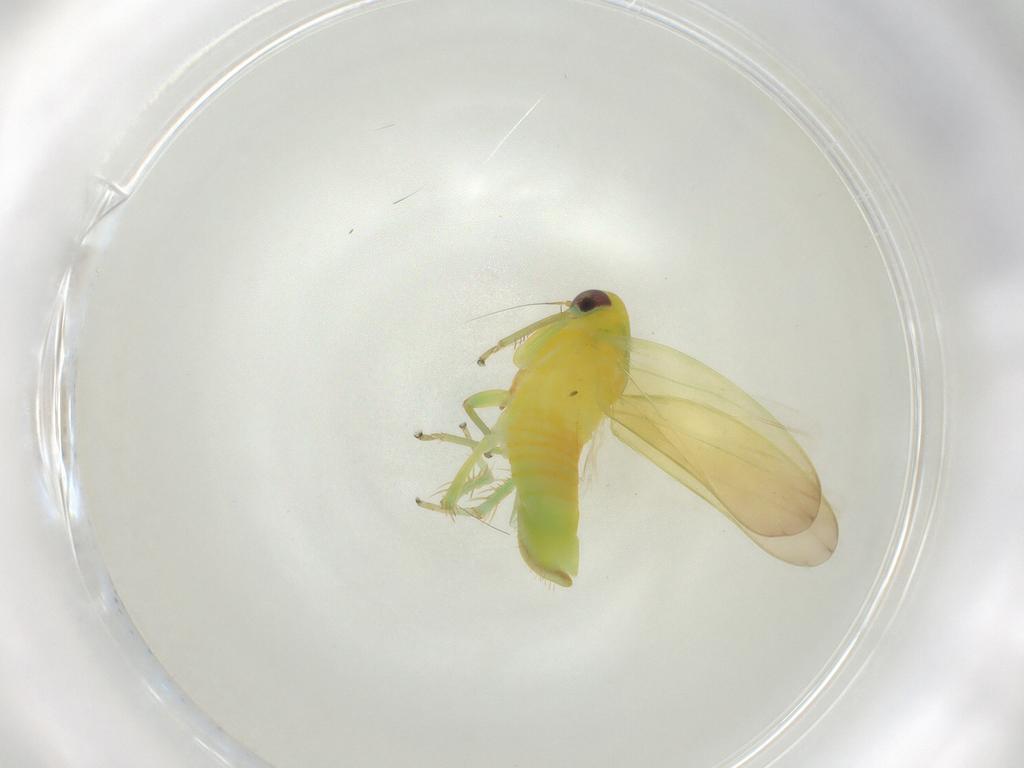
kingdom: Animalia
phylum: Arthropoda
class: Insecta
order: Hemiptera
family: Cicadellidae
